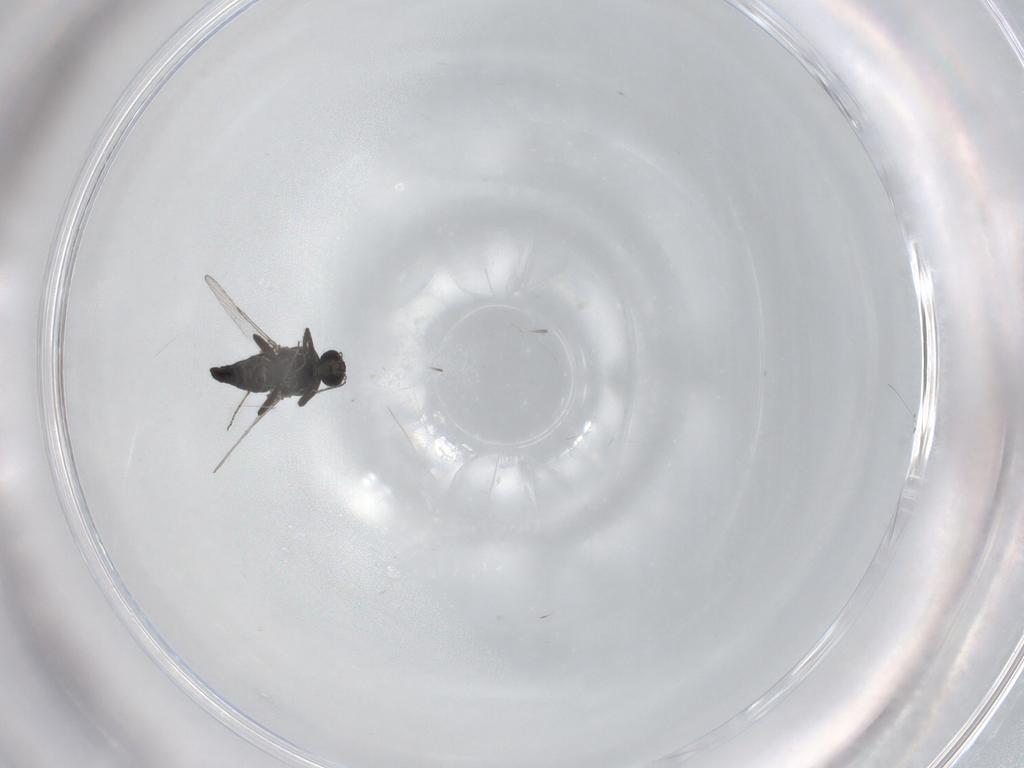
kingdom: Animalia
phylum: Arthropoda
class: Insecta
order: Diptera
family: Ceratopogonidae
